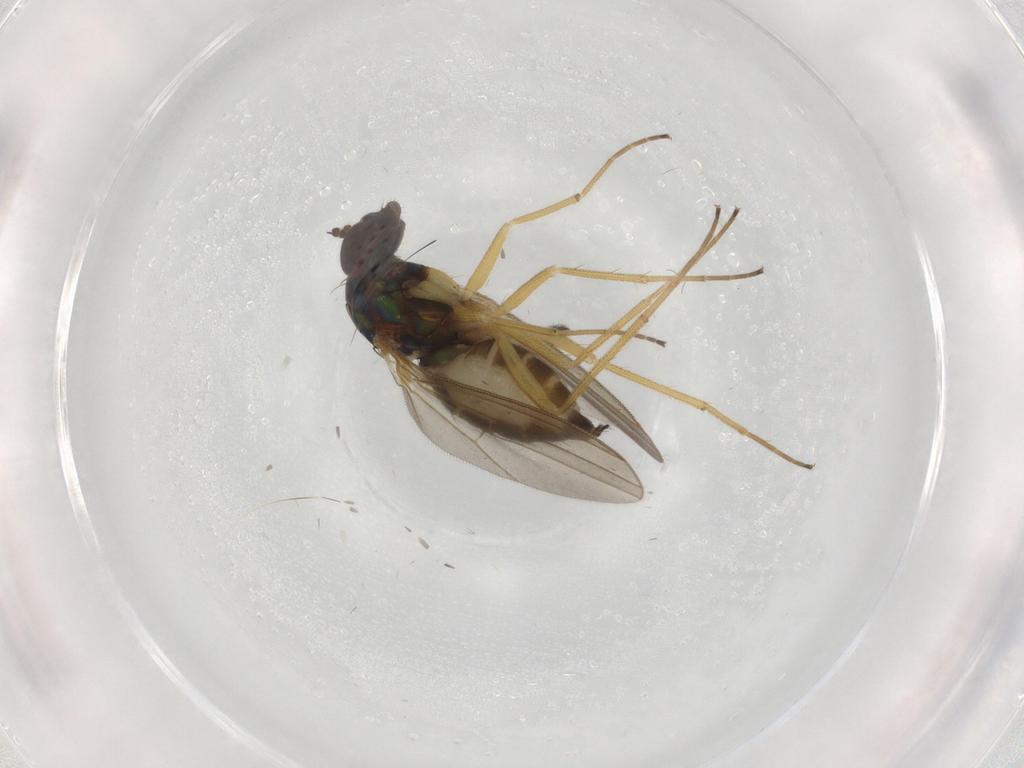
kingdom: Animalia
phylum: Arthropoda
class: Insecta
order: Diptera
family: Dolichopodidae
